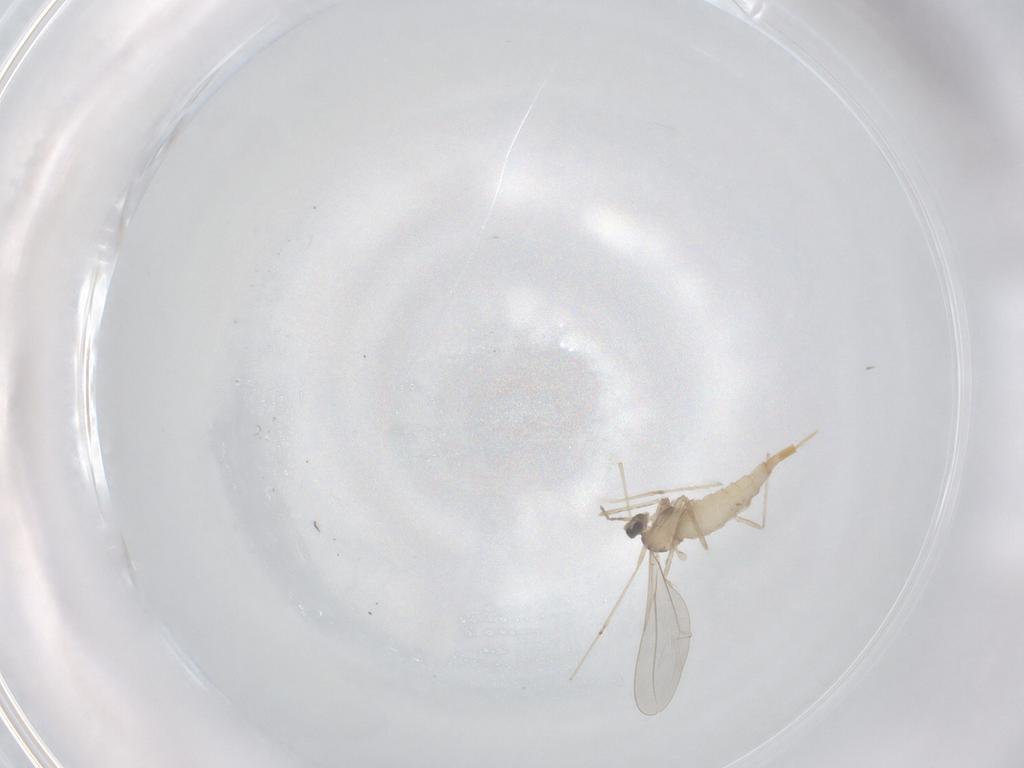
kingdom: Animalia
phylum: Arthropoda
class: Insecta
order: Diptera
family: Cecidomyiidae
